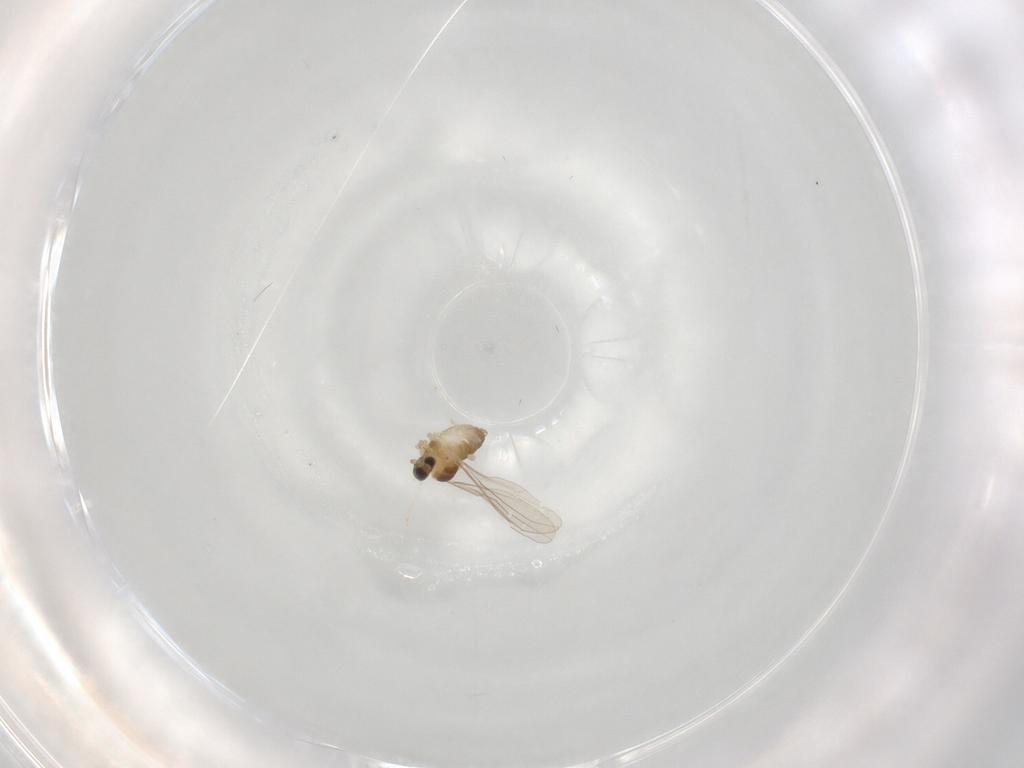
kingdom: Animalia
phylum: Arthropoda
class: Insecta
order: Diptera
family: Cecidomyiidae
